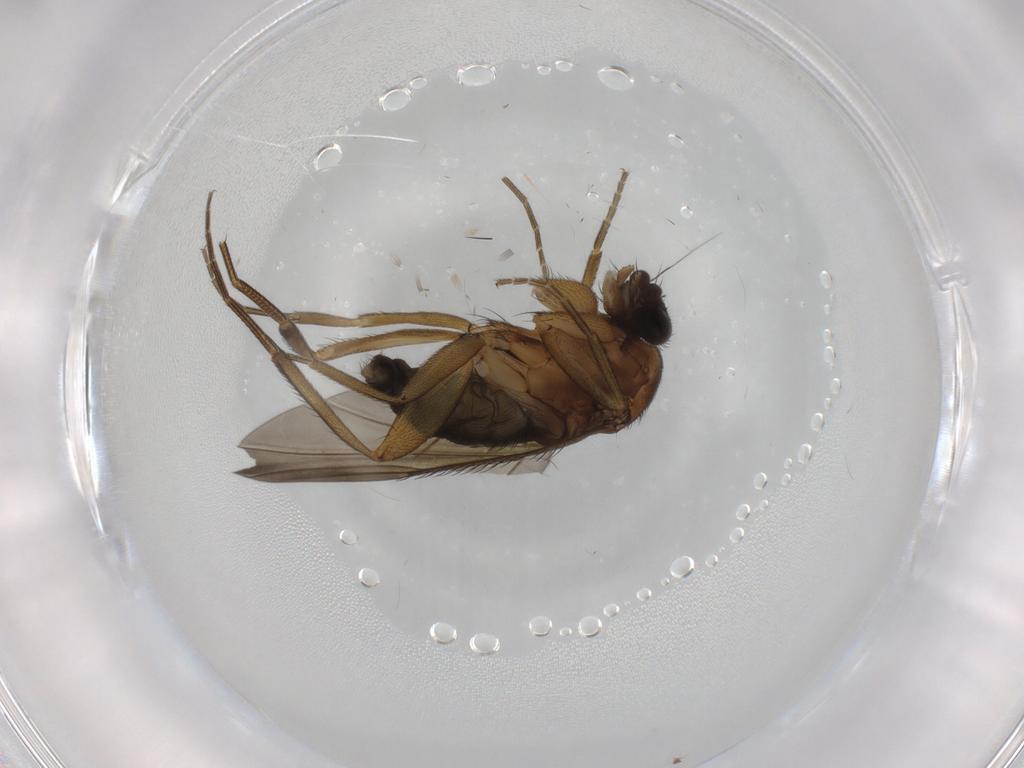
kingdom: Animalia
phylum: Arthropoda
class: Insecta
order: Diptera
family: Phoridae
